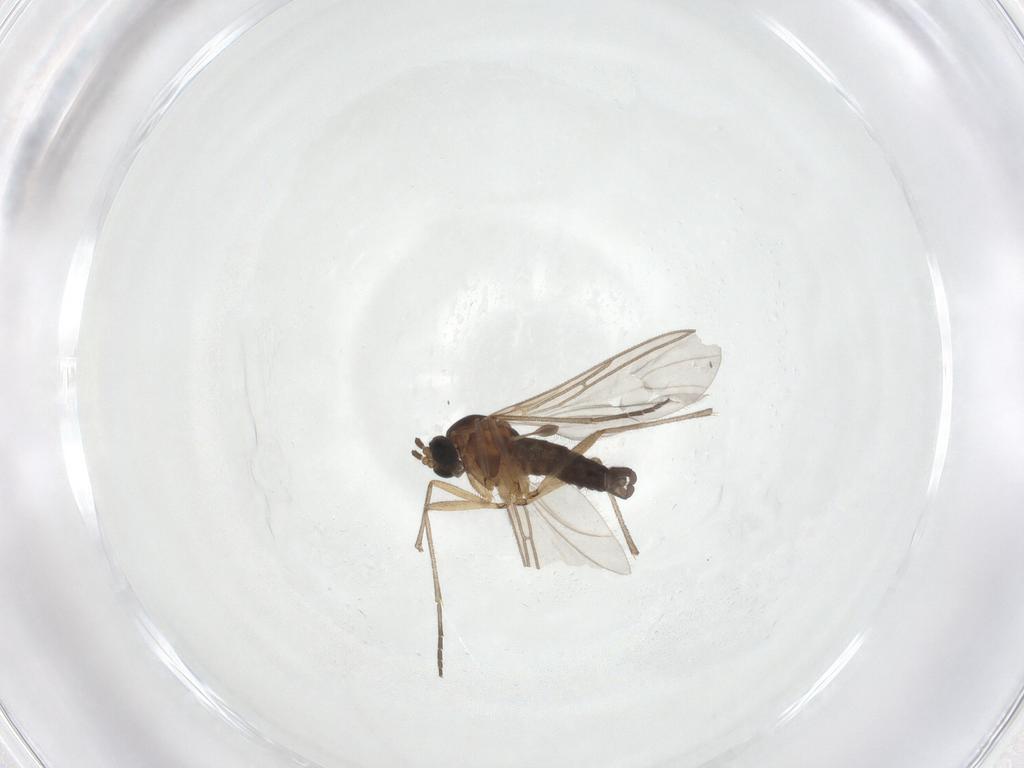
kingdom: Animalia
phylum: Arthropoda
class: Insecta
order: Diptera
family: Sciaridae
